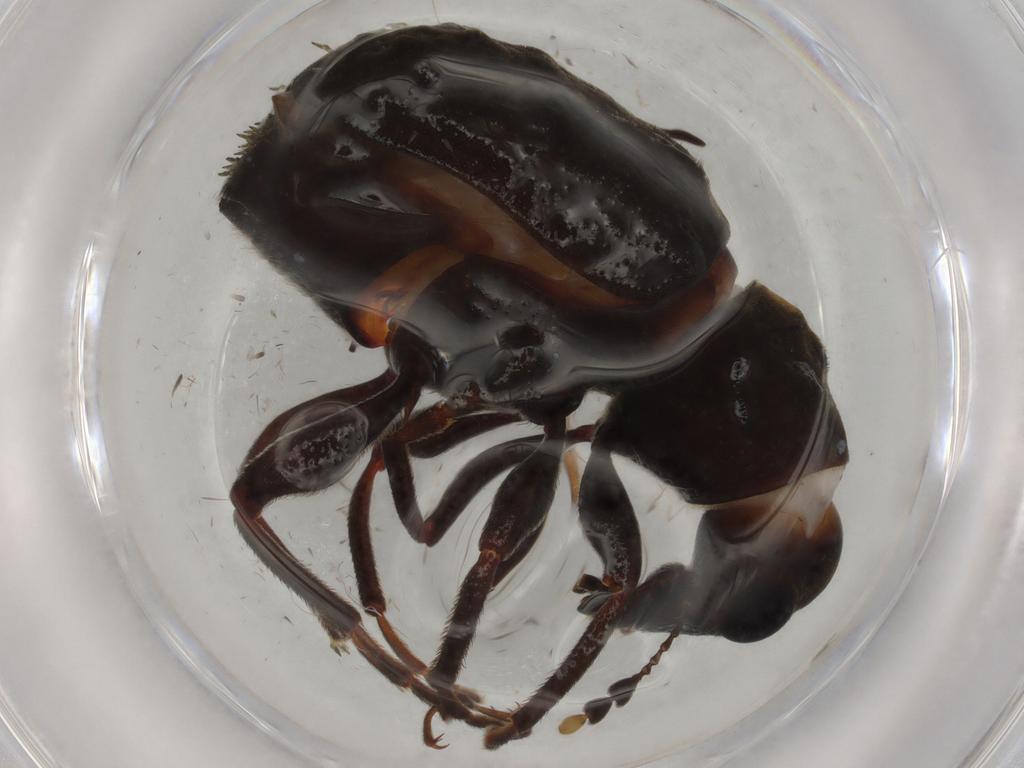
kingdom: Animalia
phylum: Arthropoda
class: Insecta
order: Coleoptera
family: Anthribidae
